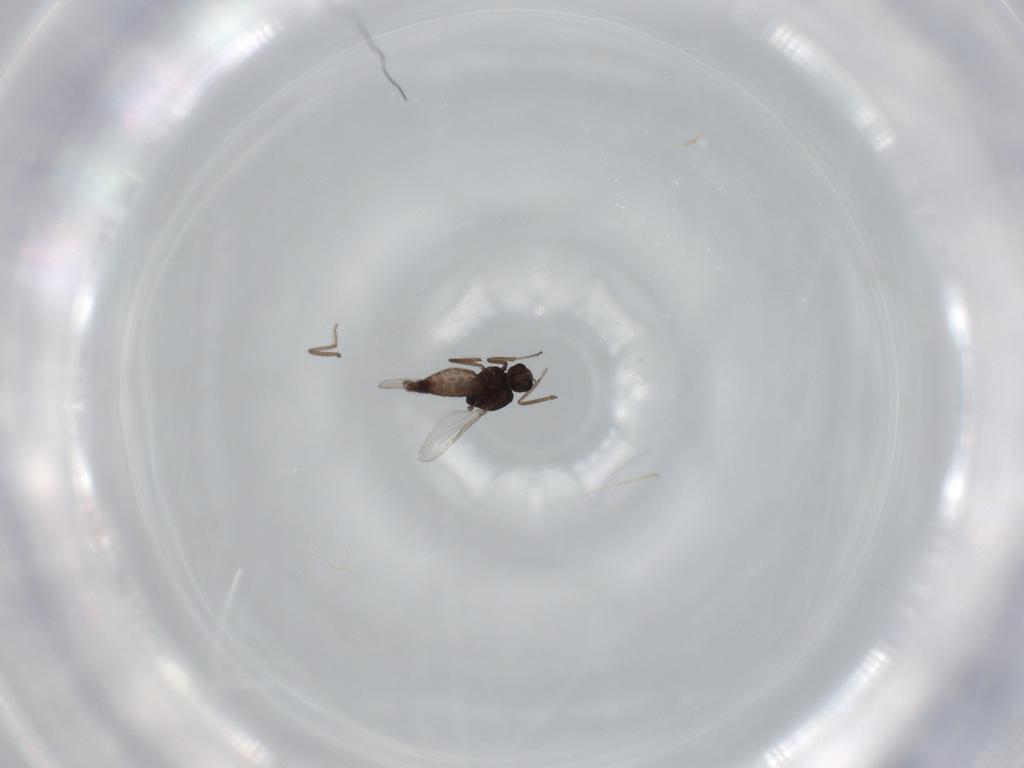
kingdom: Animalia
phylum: Arthropoda
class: Insecta
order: Diptera
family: Ceratopogonidae
